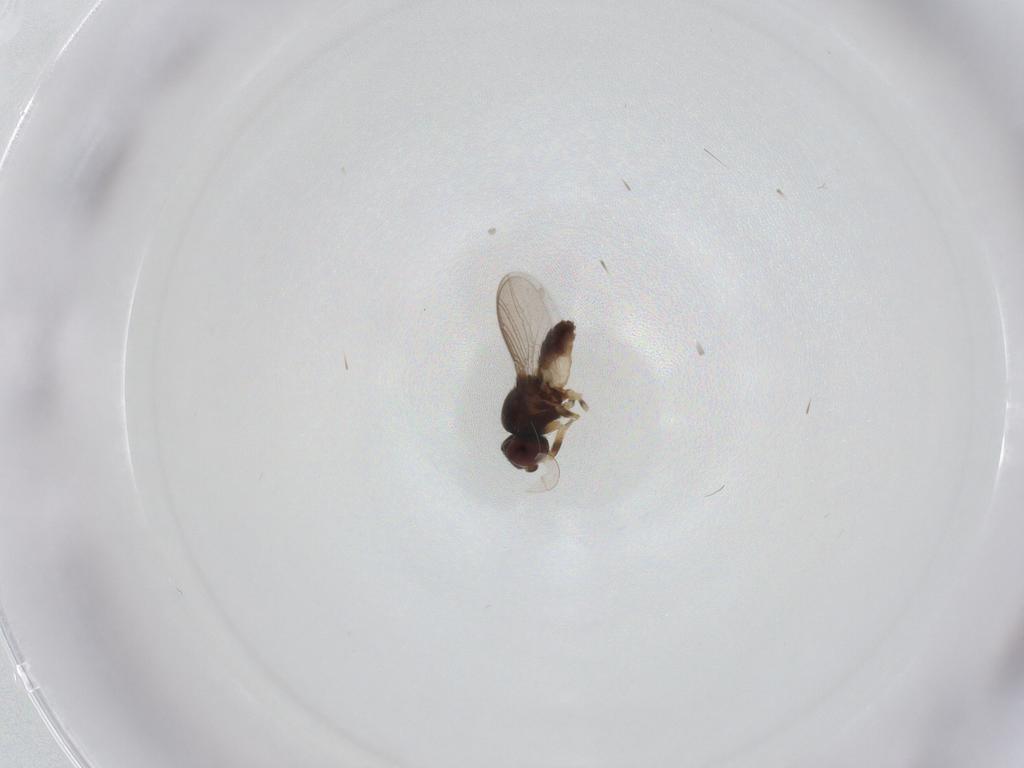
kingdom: Animalia
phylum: Arthropoda
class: Insecta
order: Diptera
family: Chloropidae
